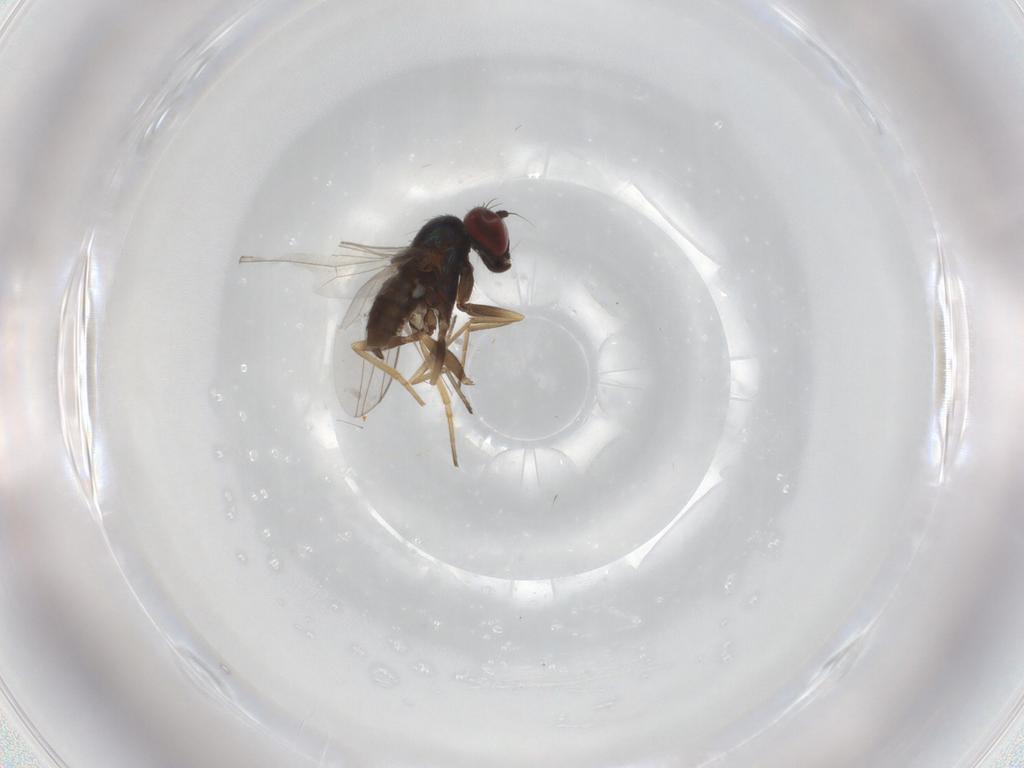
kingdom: Animalia
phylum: Arthropoda
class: Insecta
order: Diptera
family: Dolichopodidae
